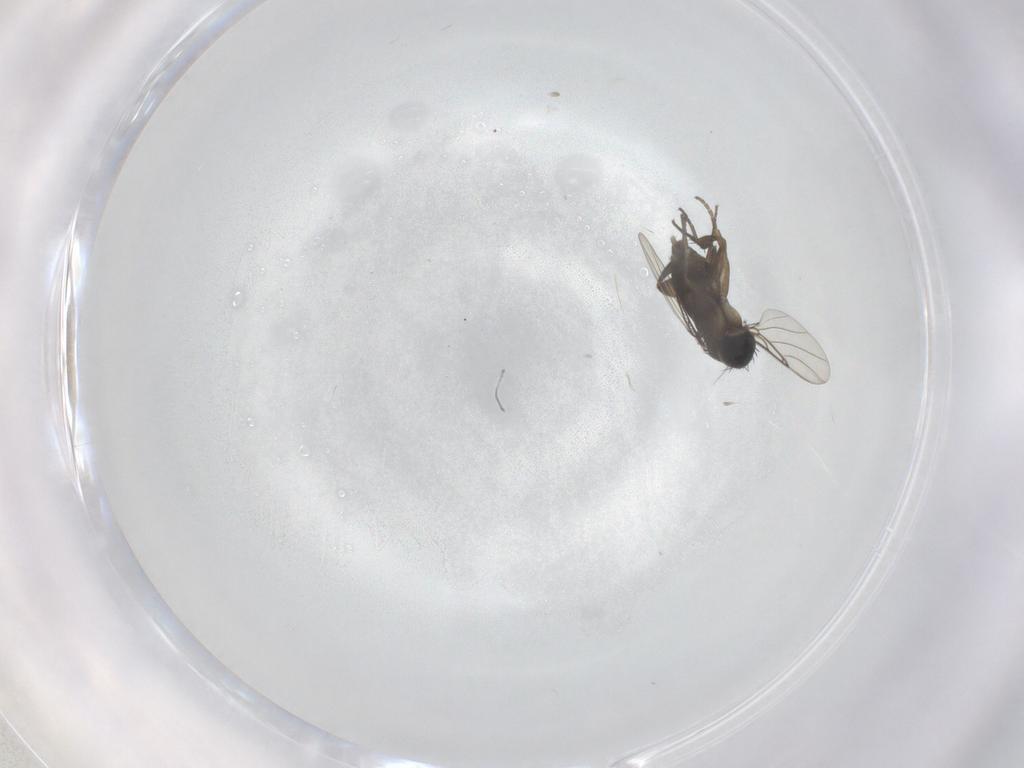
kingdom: Animalia
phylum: Arthropoda
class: Insecta
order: Diptera
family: Phoridae
